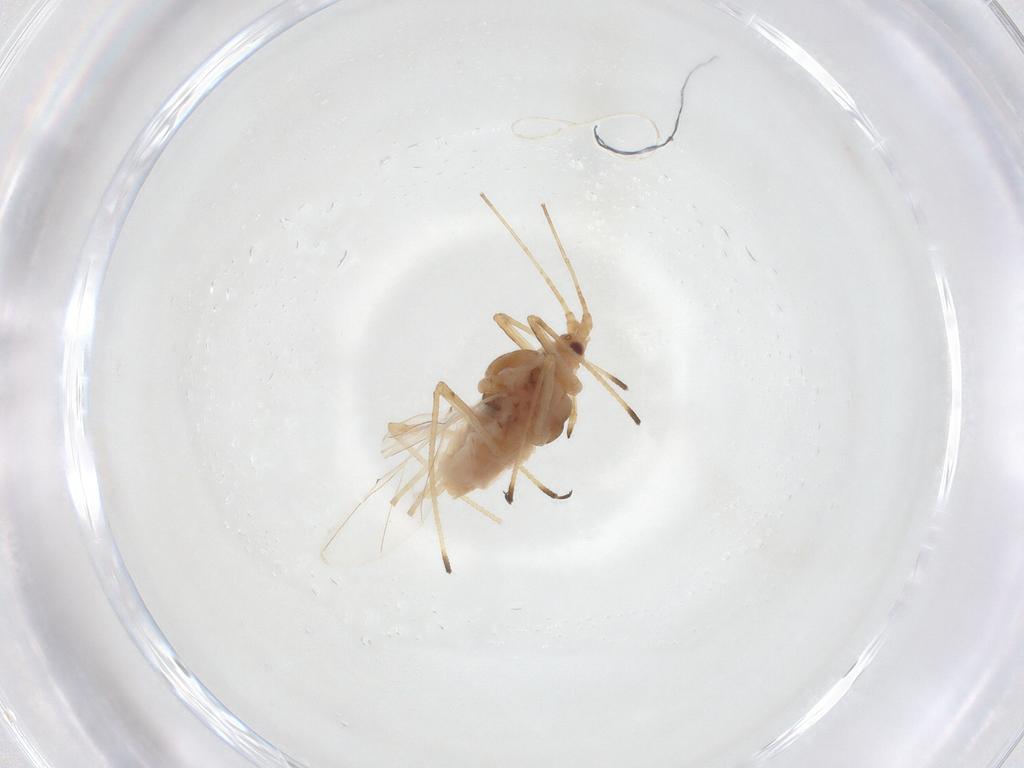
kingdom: Animalia
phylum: Arthropoda
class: Insecta
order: Hemiptera
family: Aphididae
